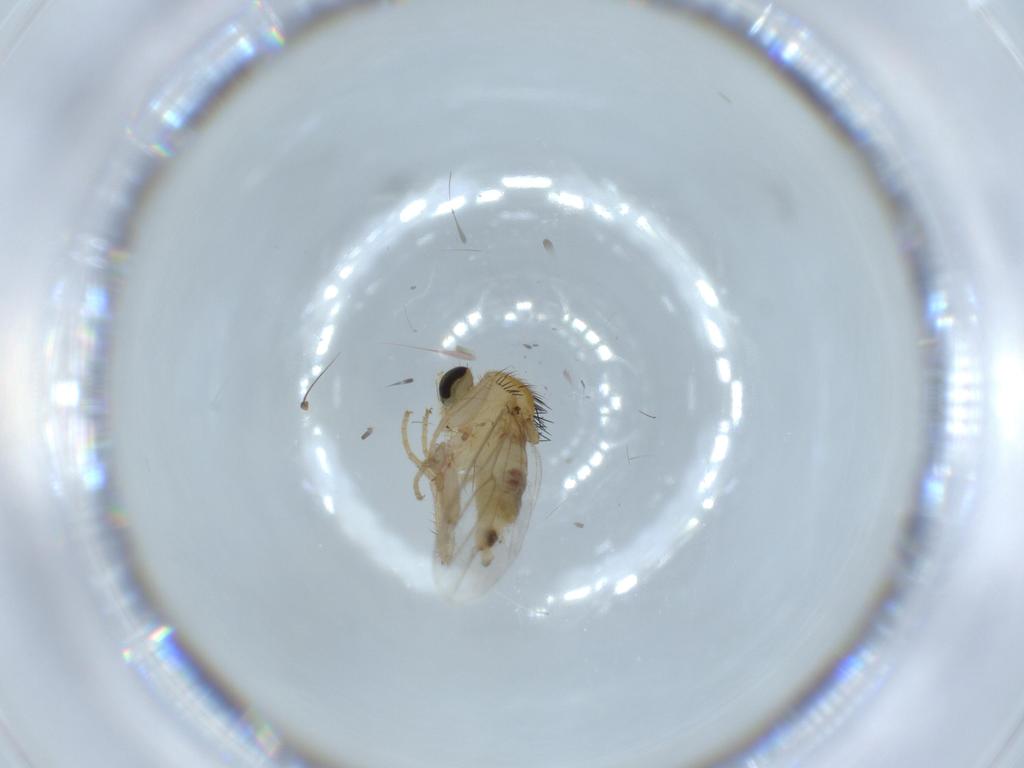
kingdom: Animalia
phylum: Arthropoda
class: Insecta
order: Diptera
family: Hybotidae
